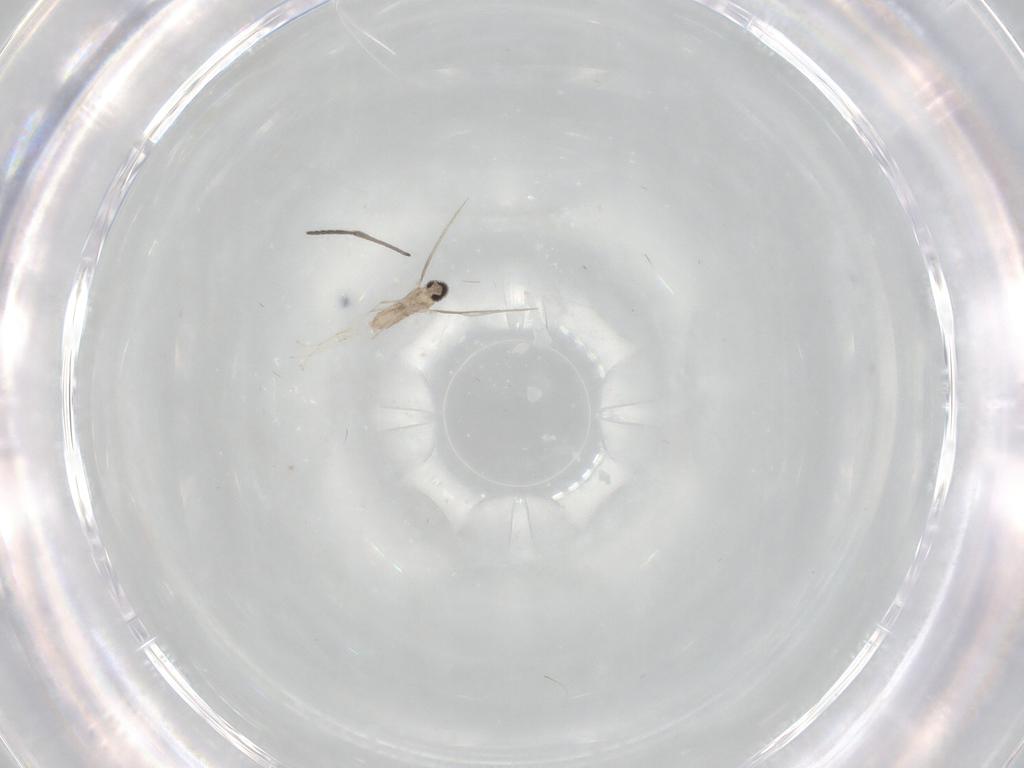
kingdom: Animalia
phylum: Arthropoda
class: Insecta
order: Diptera
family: Cecidomyiidae
